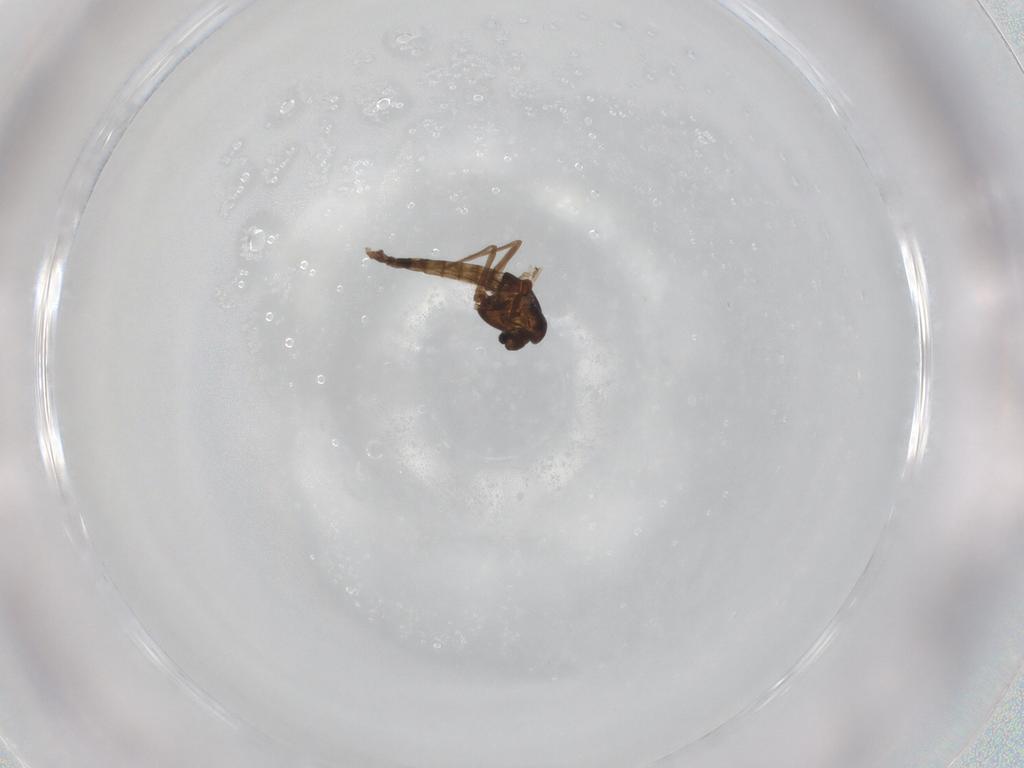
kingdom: Animalia
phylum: Arthropoda
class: Insecta
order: Diptera
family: Chironomidae
